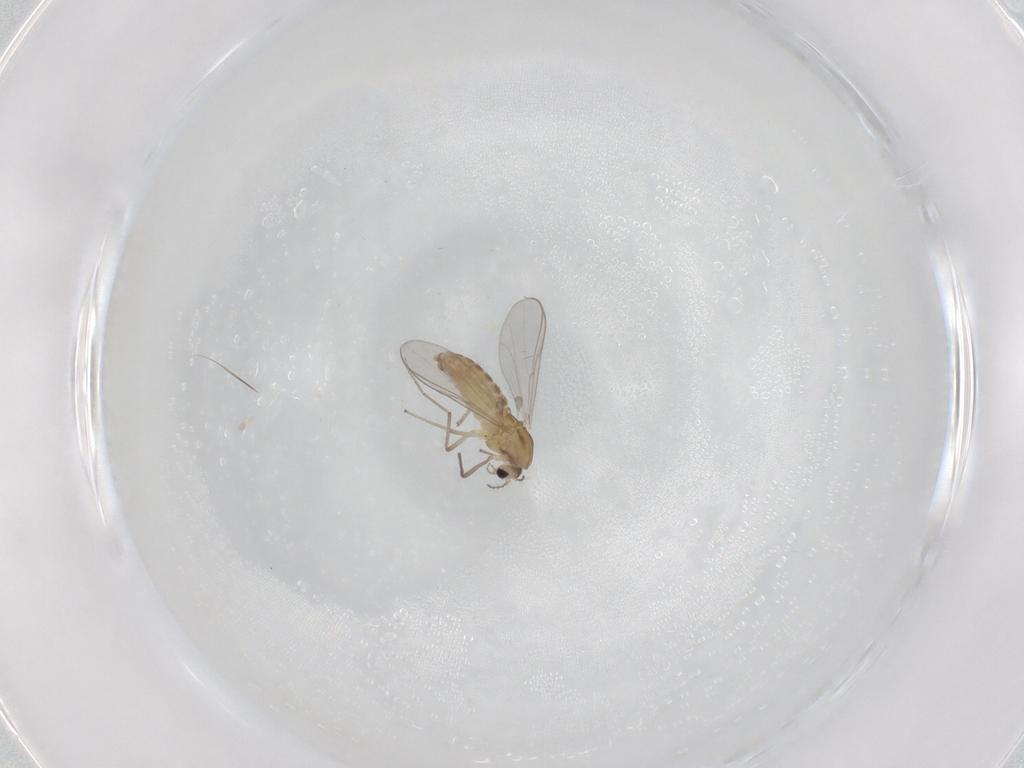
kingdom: Animalia
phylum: Arthropoda
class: Insecta
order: Diptera
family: Chironomidae
